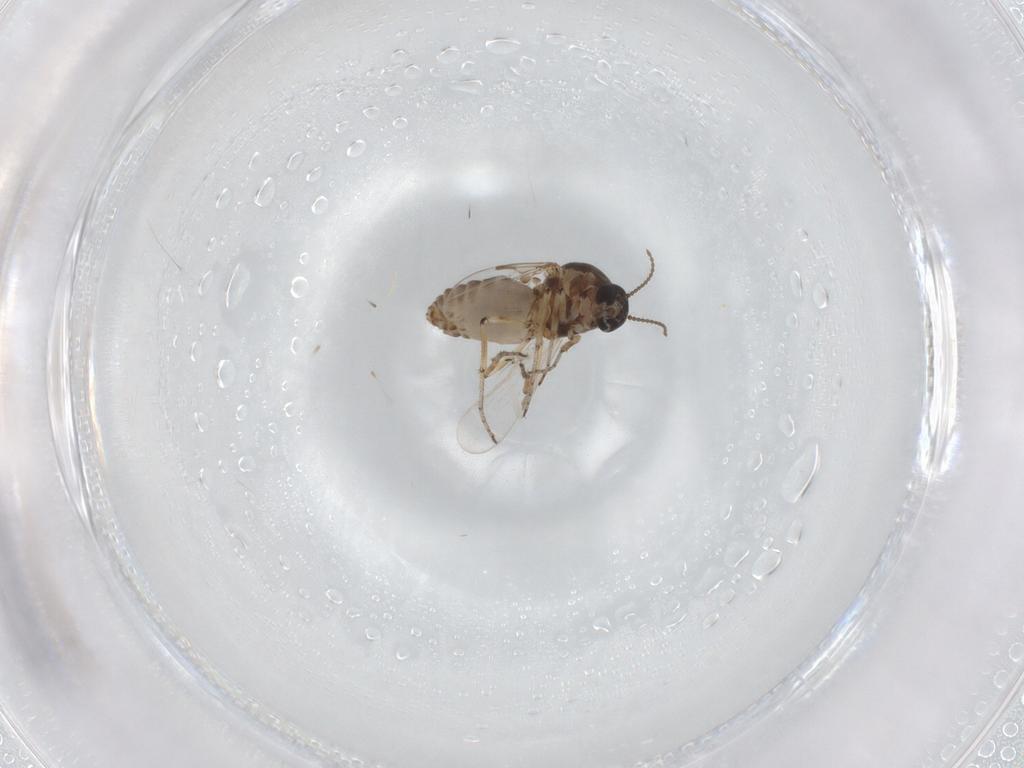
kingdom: Animalia
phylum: Arthropoda
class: Insecta
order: Diptera
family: Ceratopogonidae
